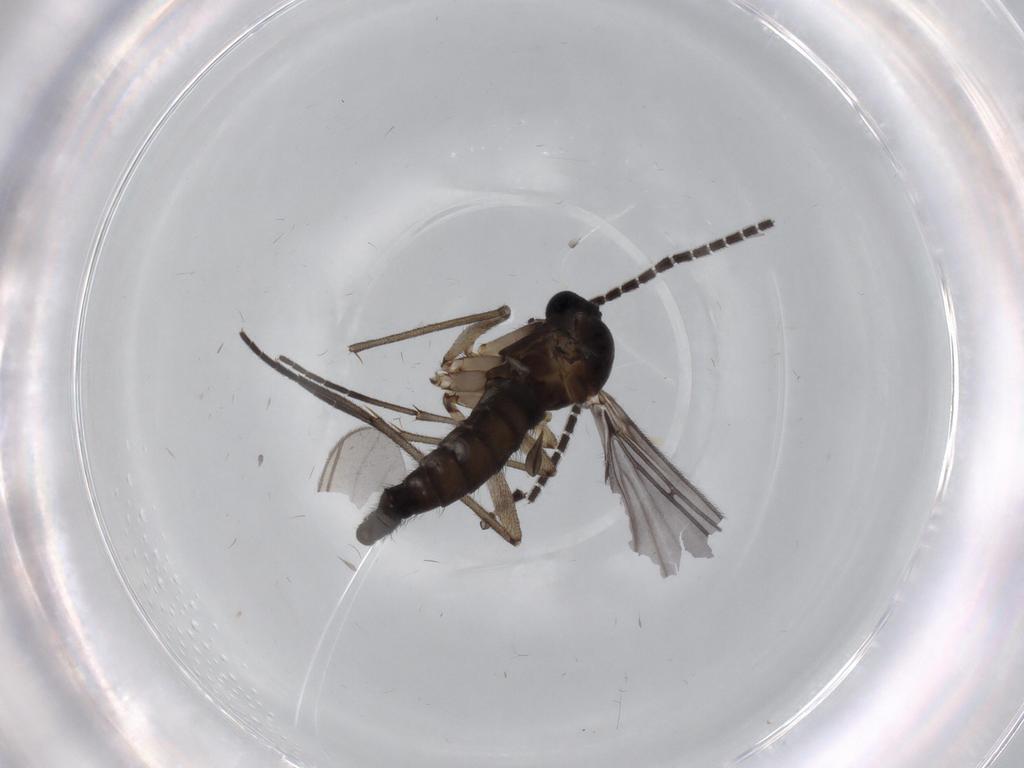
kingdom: Animalia
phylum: Arthropoda
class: Insecta
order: Diptera
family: Sciaridae
